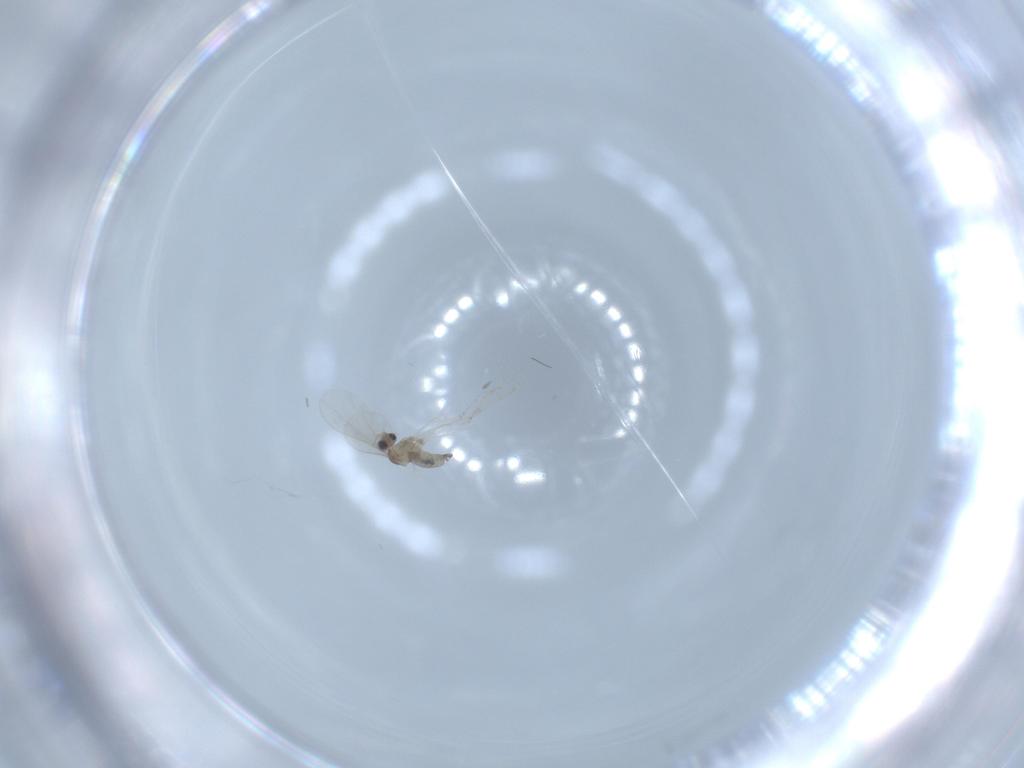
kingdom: Animalia
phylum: Arthropoda
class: Insecta
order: Diptera
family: Cecidomyiidae
